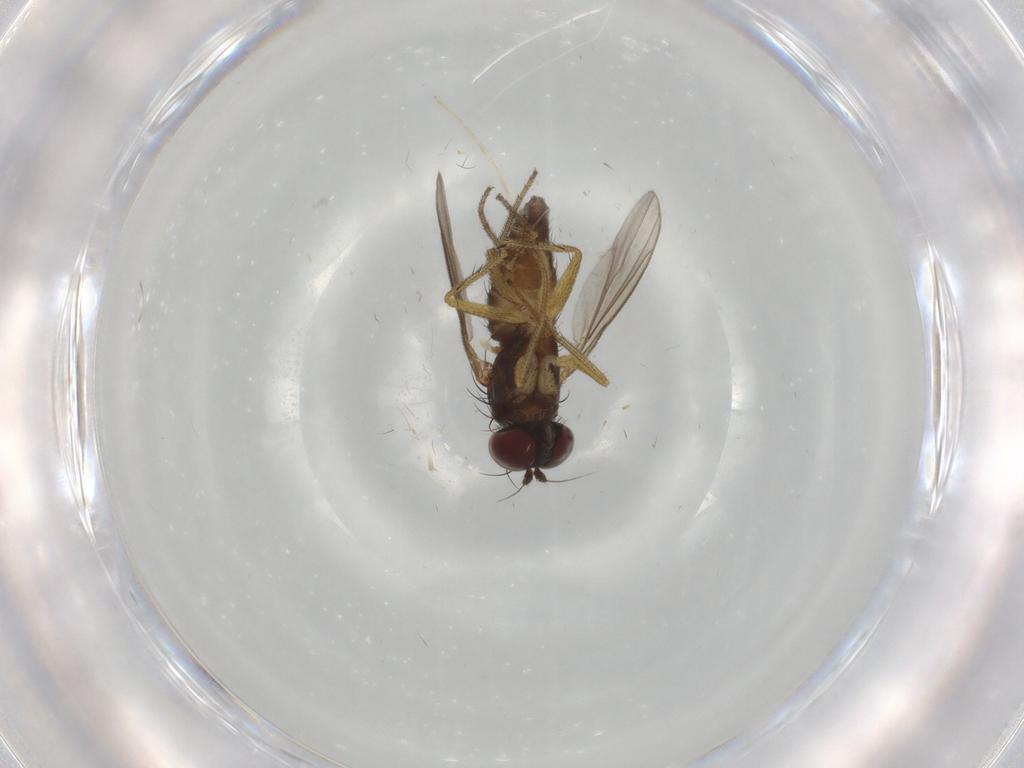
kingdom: Animalia
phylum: Arthropoda
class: Insecta
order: Diptera
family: Dolichopodidae
